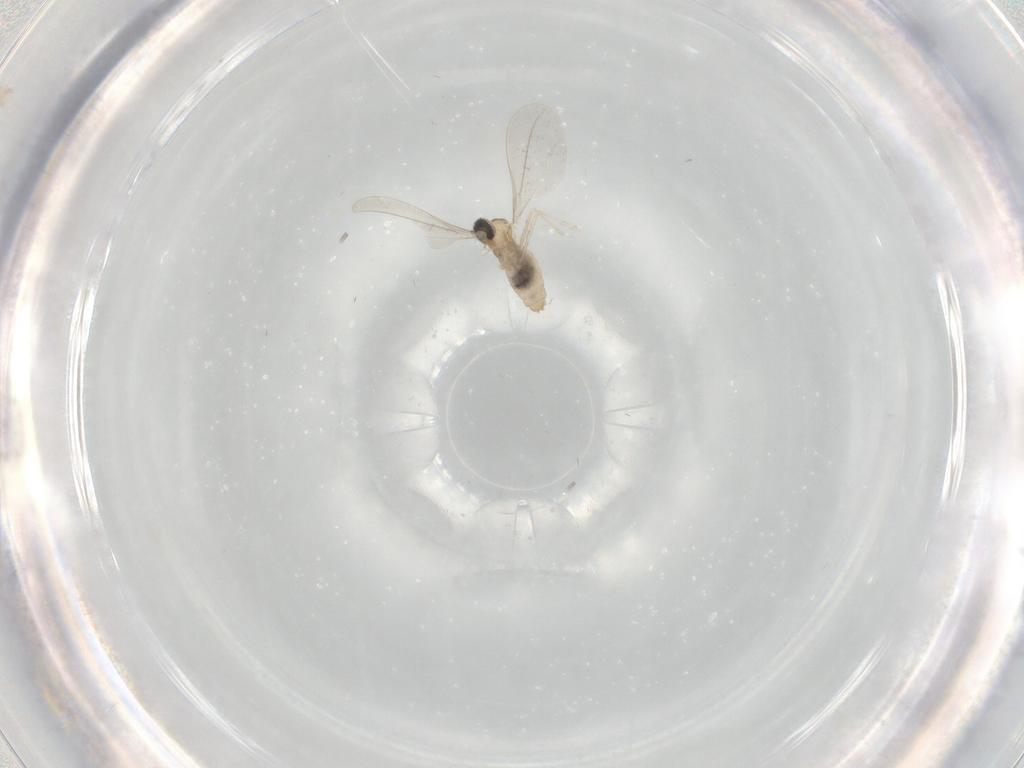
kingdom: Animalia
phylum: Arthropoda
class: Insecta
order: Diptera
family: Cecidomyiidae
